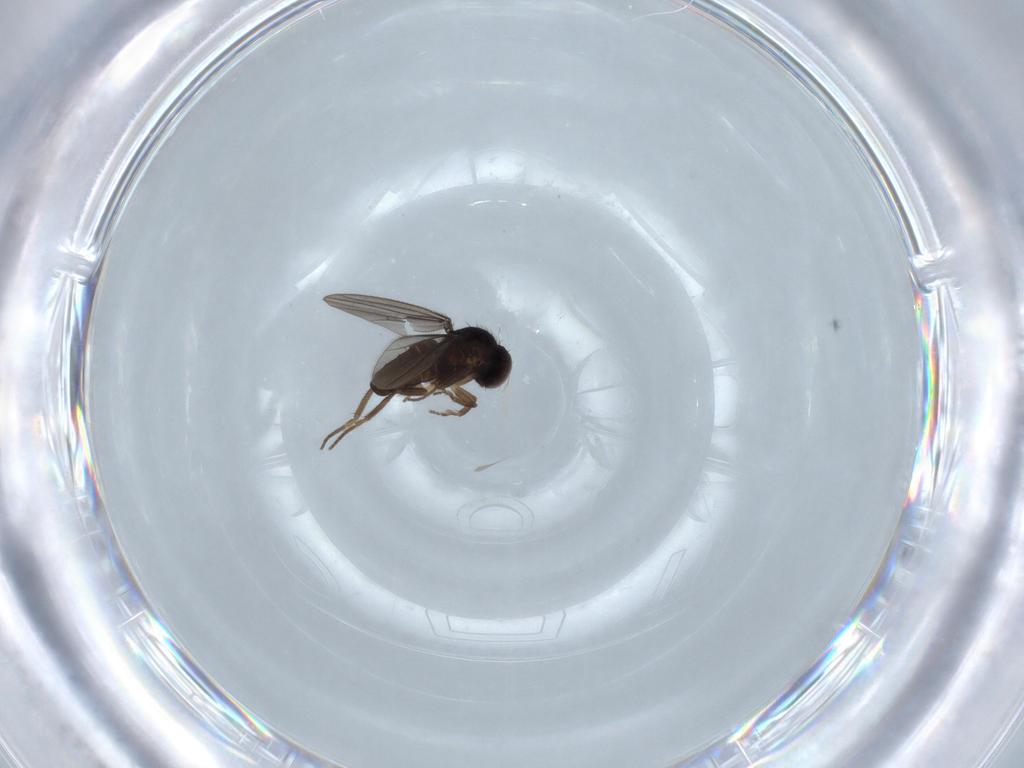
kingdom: Animalia
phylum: Arthropoda
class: Insecta
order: Diptera
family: Dolichopodidae
